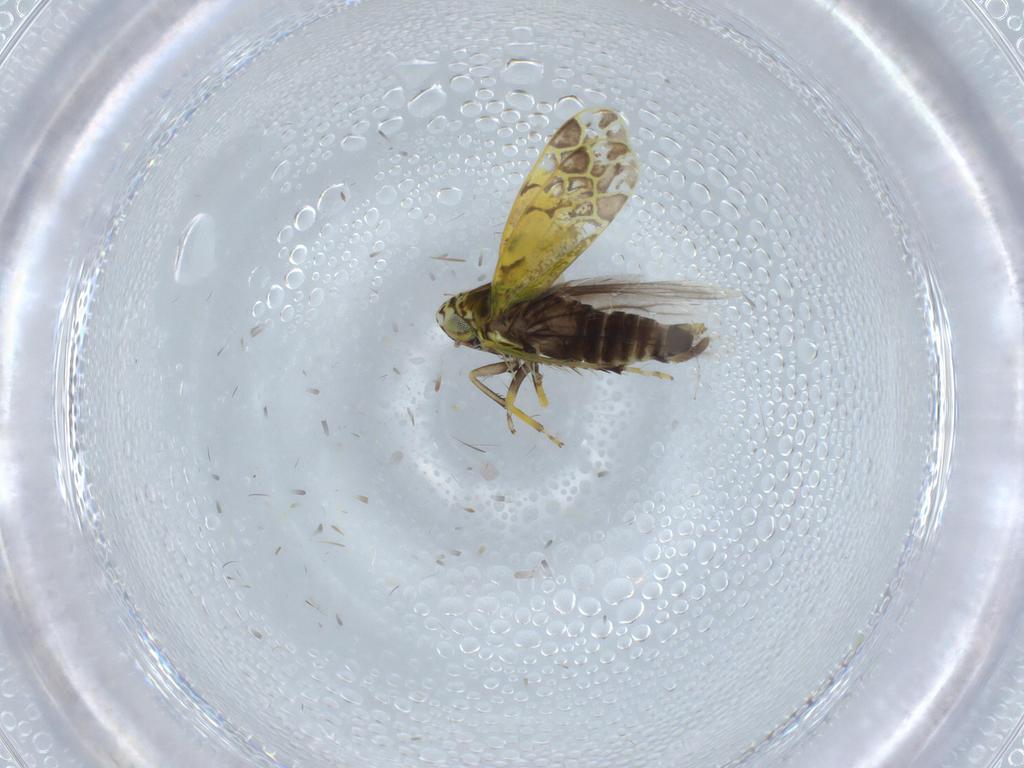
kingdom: Animalia
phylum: Arthropoda
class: Insecta
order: Hemiptera
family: Cicadellidae
